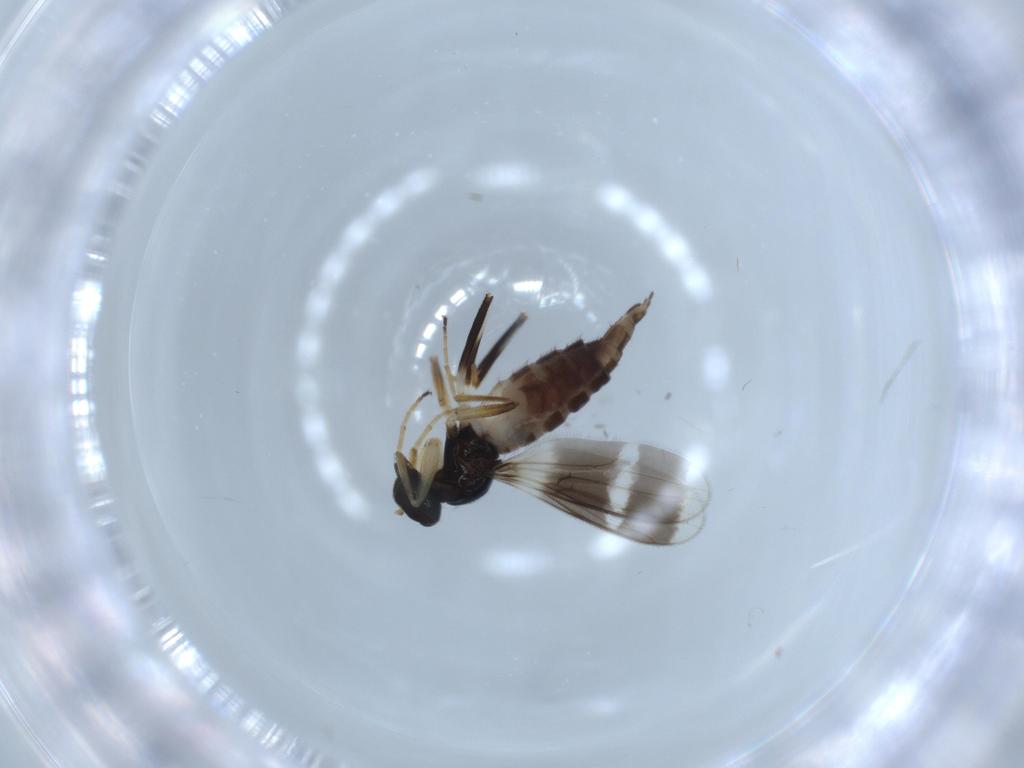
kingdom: Animalia
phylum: Arthropoda
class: Insecta
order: Diptera
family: Hybotidae
